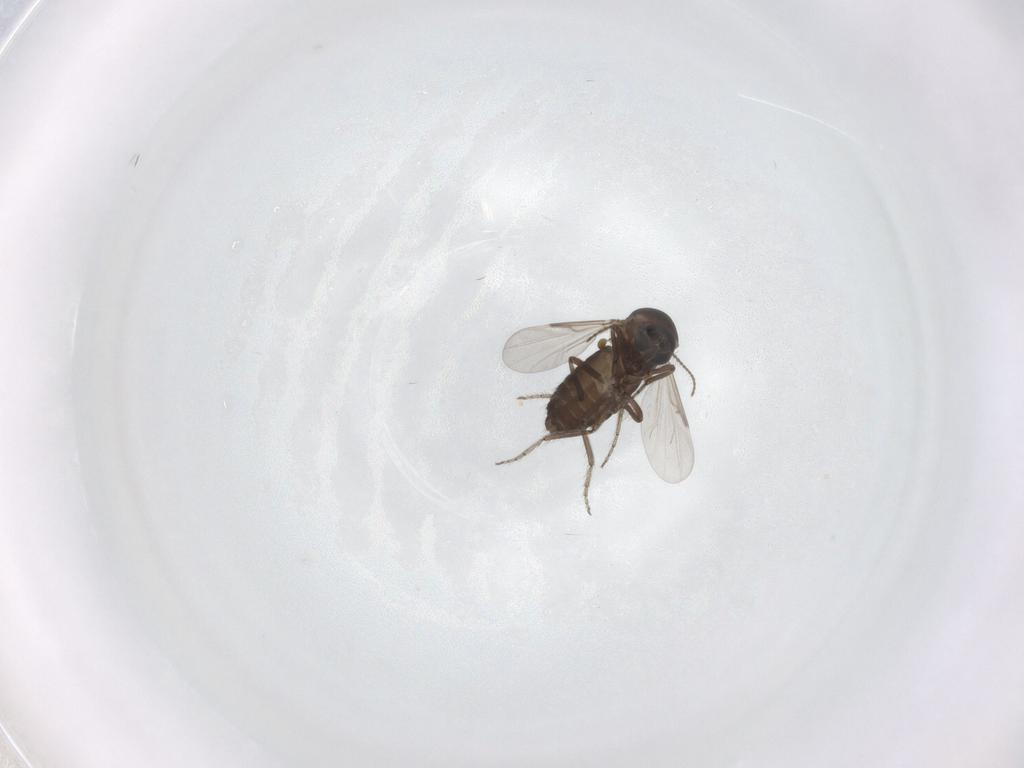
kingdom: Animalia
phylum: Arthropoda
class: Insecta
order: Diptera
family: Ceratopogonidae
